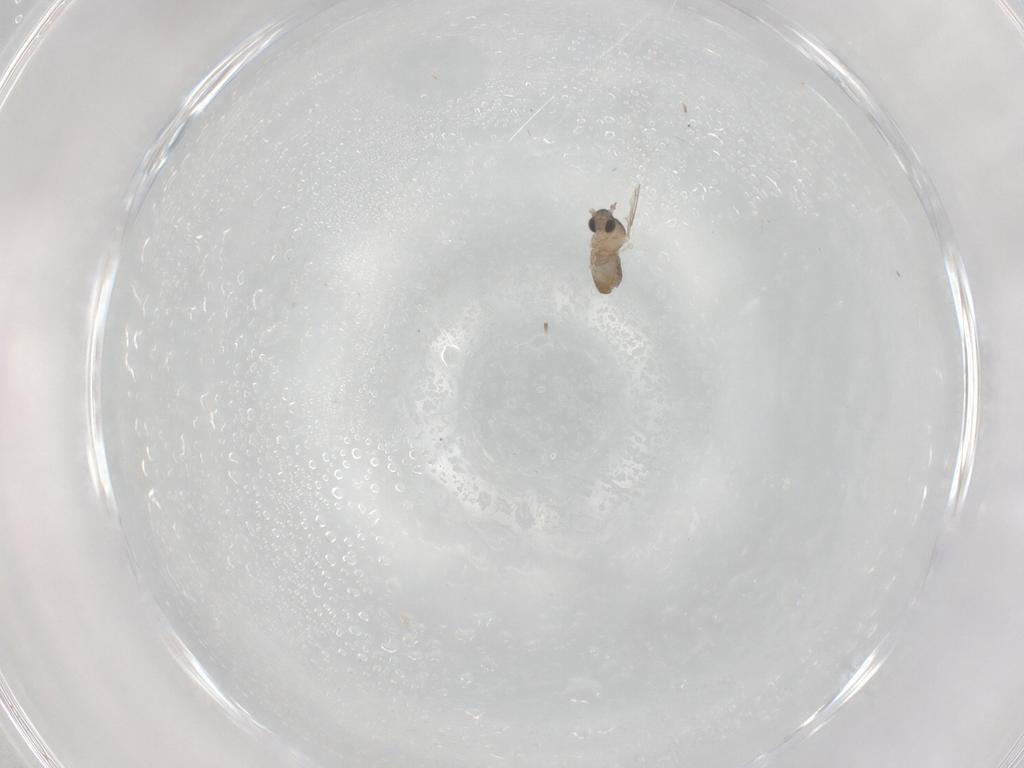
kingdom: Animalia
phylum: Arthropoda
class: Insecta
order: Diptera
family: Cecidomyiidae
